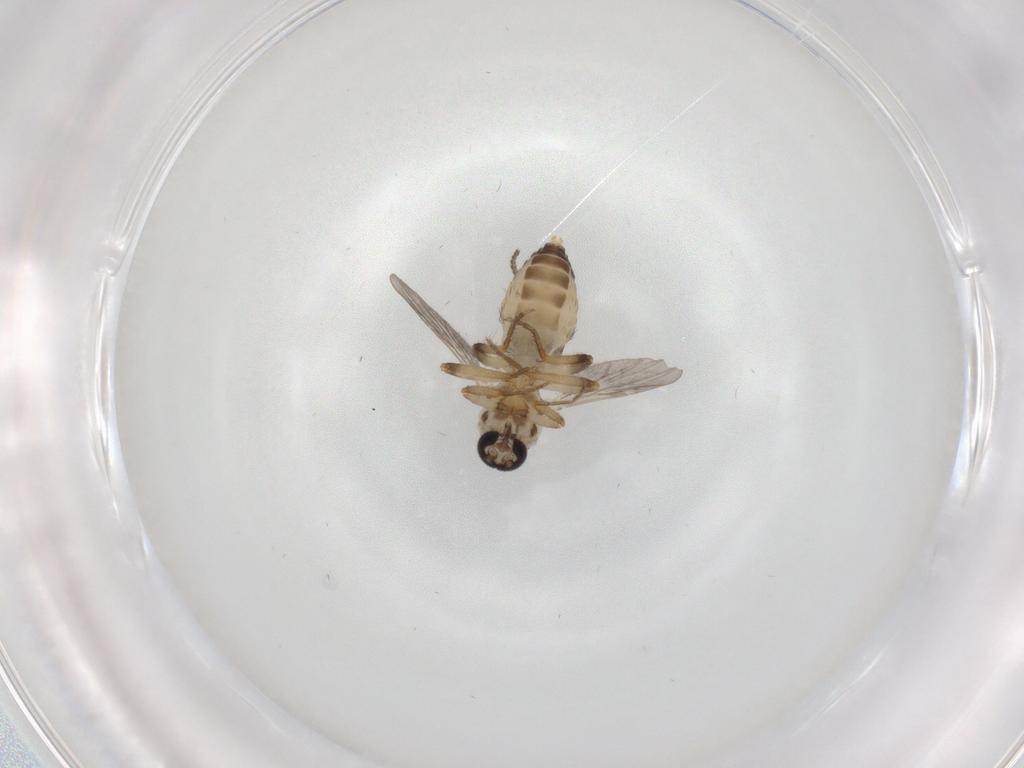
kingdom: Animalia
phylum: Arthropoda
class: Insecta
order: Diptera
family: Ceratopogonidae
